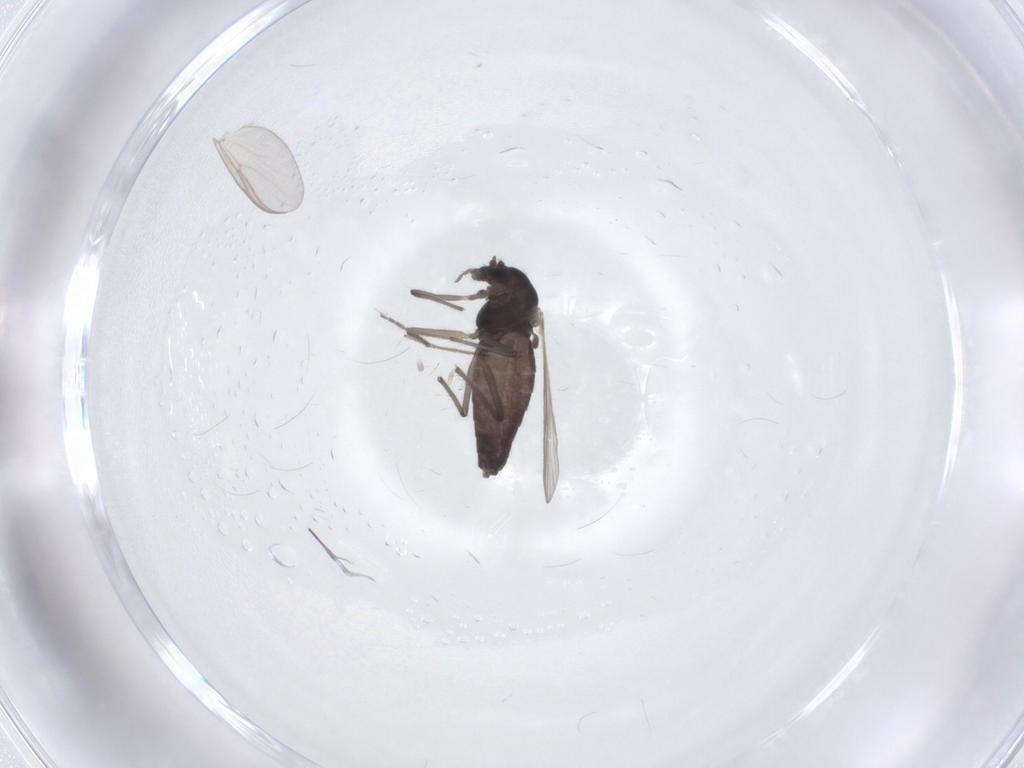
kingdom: Animalia
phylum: Arthropoda
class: Insecta
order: Diptera
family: Chironomidae
